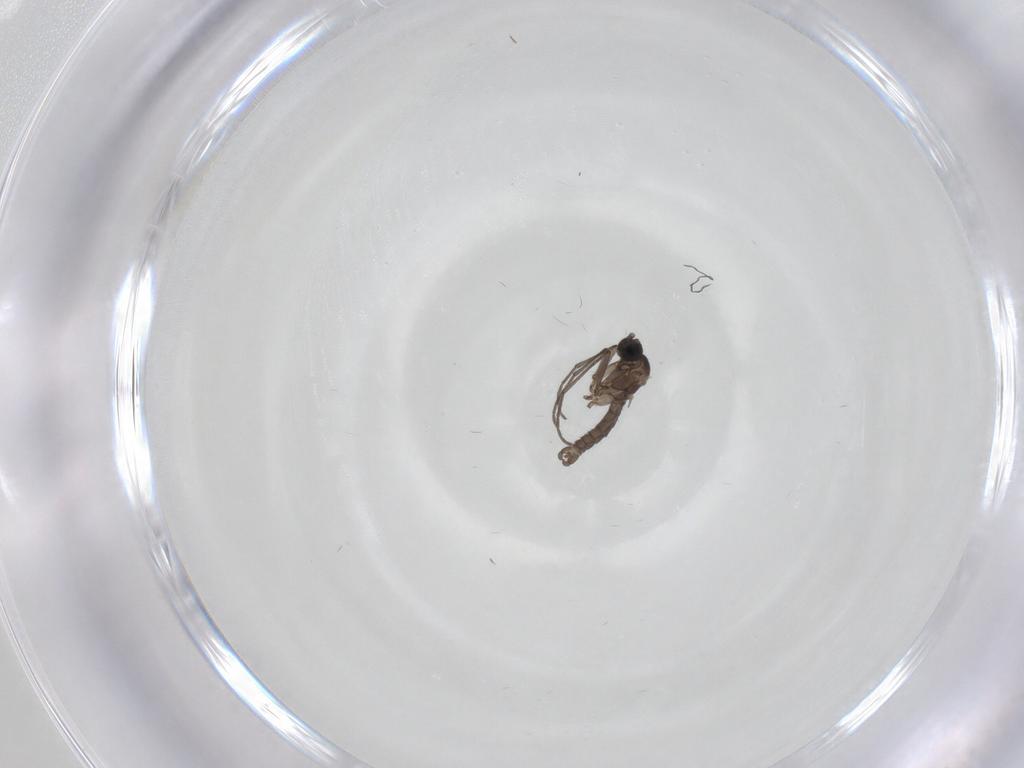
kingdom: Animalia
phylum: Arthropoda
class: Insecta
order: Diptera
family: Sciaridae
